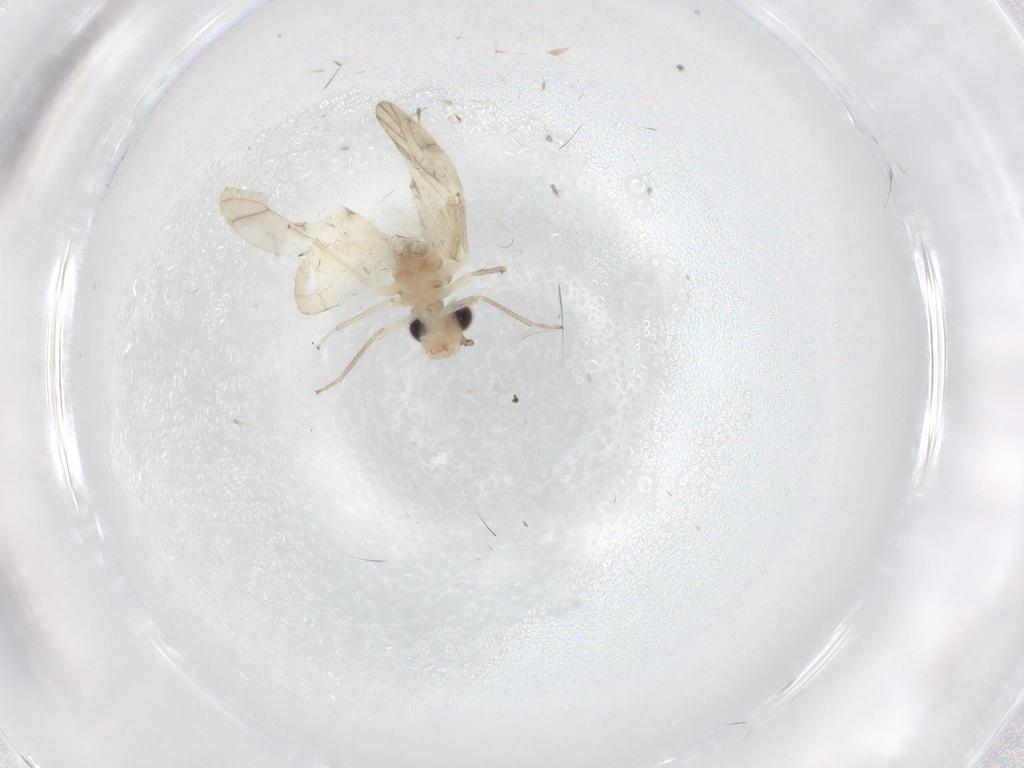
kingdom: Animalia
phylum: Arthropoda
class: Insecta
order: Psocodea
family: Caeciliusidae
